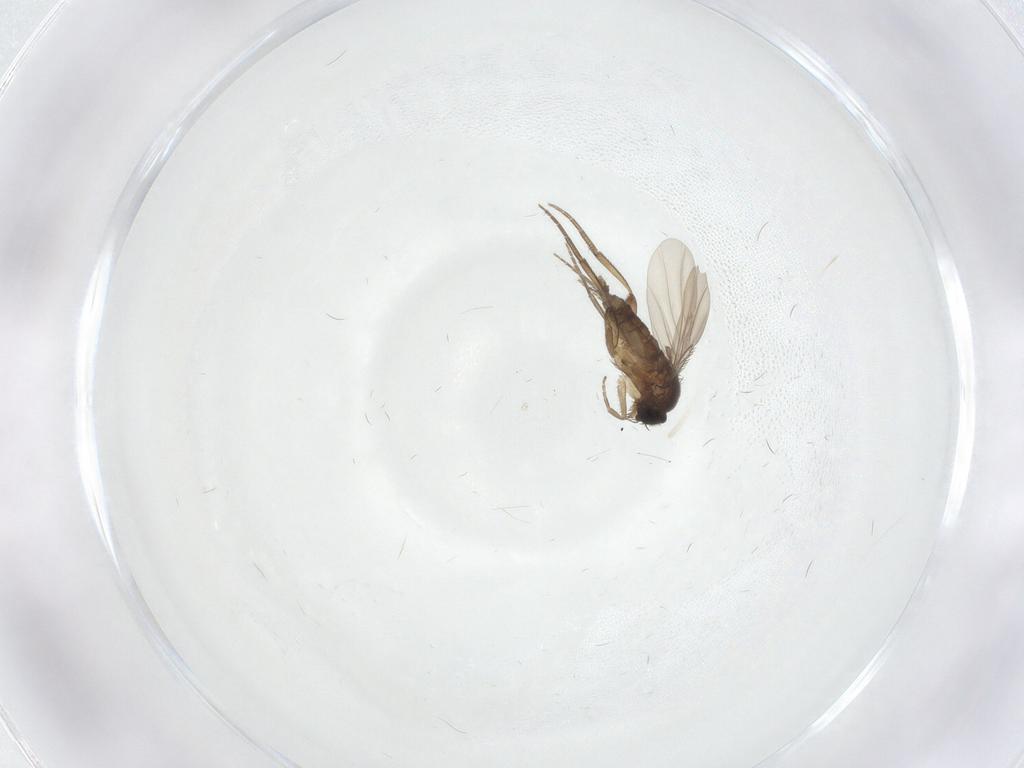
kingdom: Animalia
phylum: Arthropoda
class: Insecta
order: Diptera
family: Phoridae
